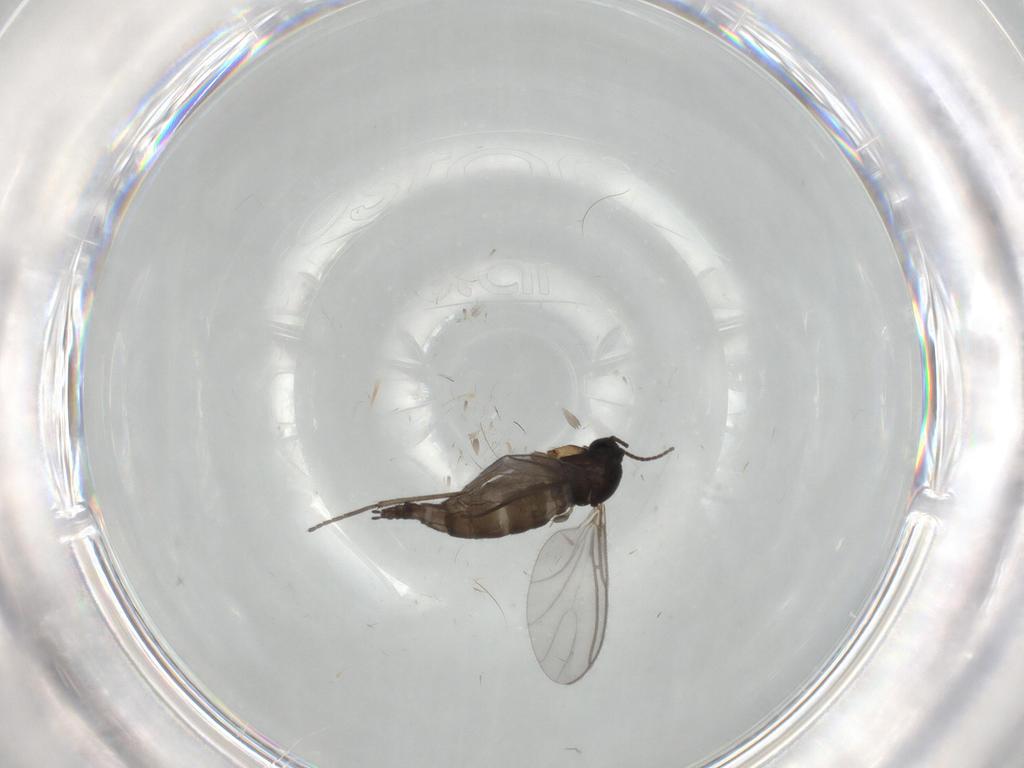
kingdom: Animalia
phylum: Arthropoda
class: Insecta
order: Diptera
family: Sciaridae
